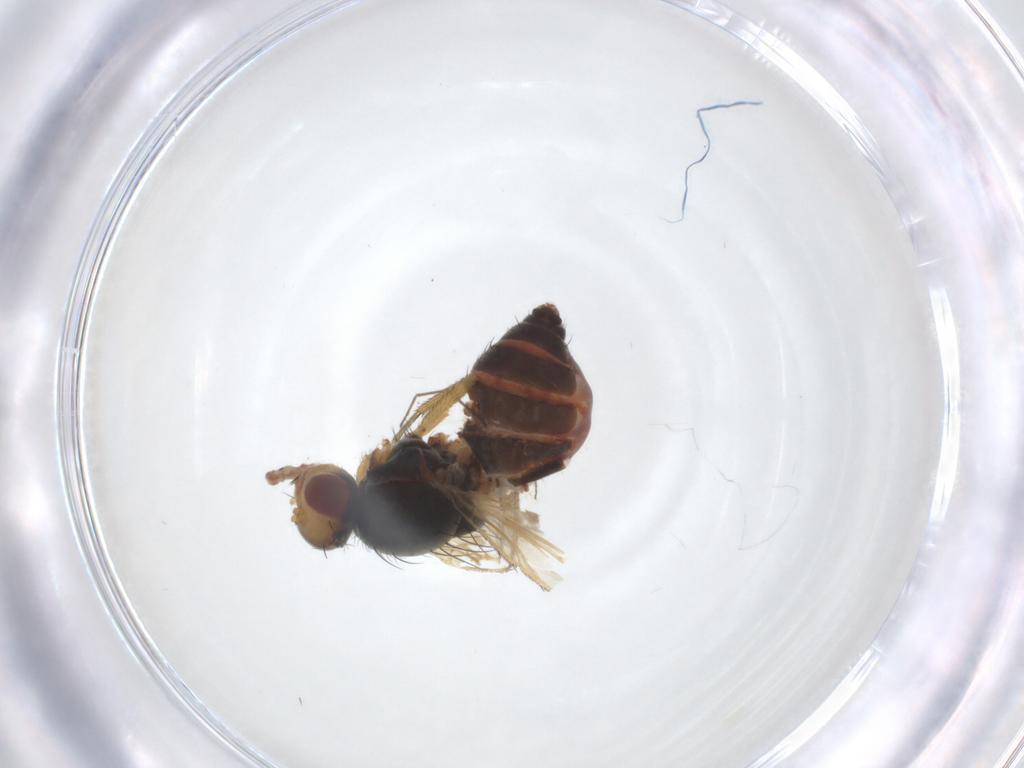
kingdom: Animalia
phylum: Arthropoda
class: Insecta
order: Diptera
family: Heleomyzidae
